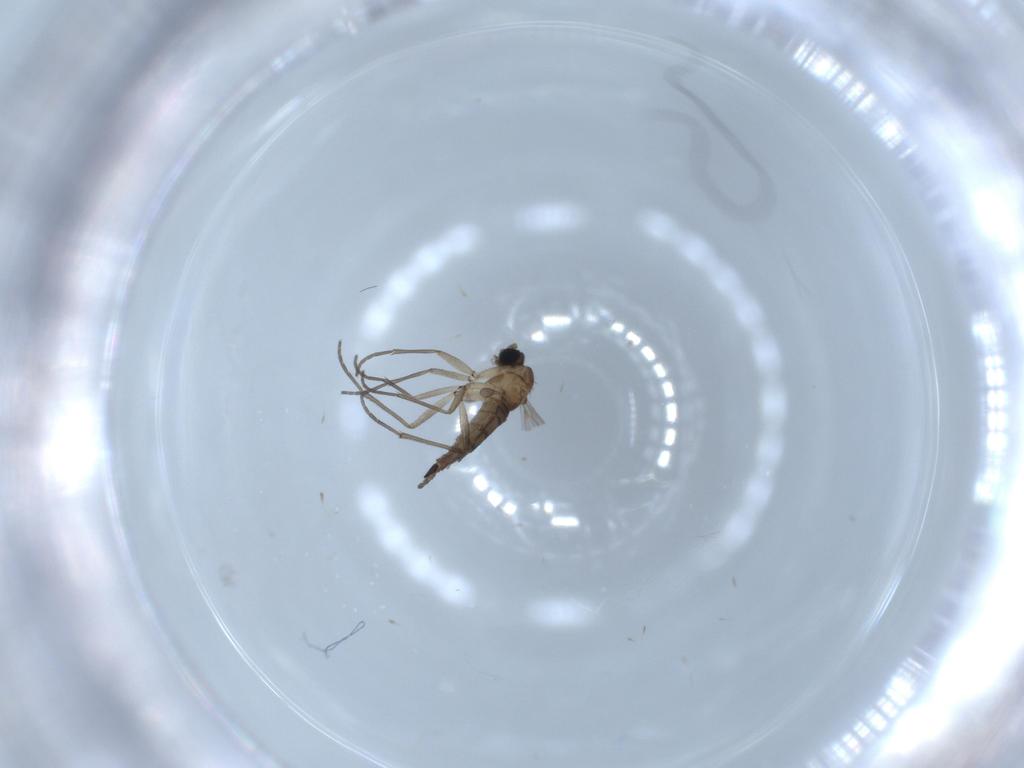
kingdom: Animalia
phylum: Arthropoda
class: Insecta
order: Diptera
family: Sciaridae
